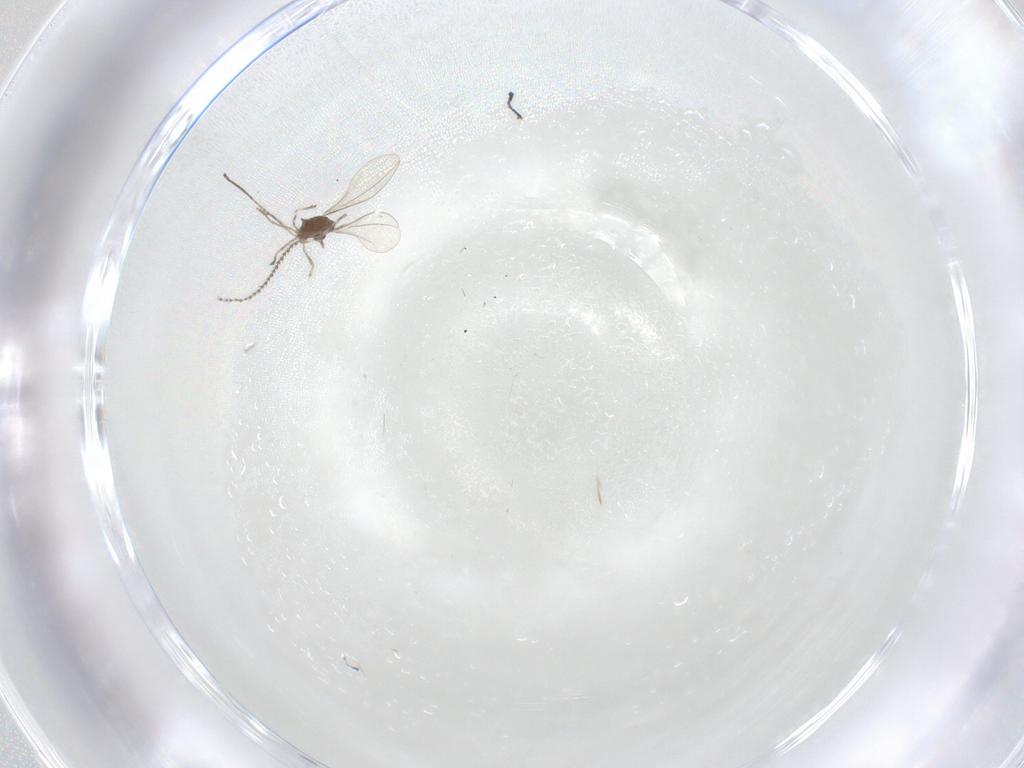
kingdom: Animalia
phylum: Arthropoda
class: Insecta
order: Diptera
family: Cecidomyiidae
